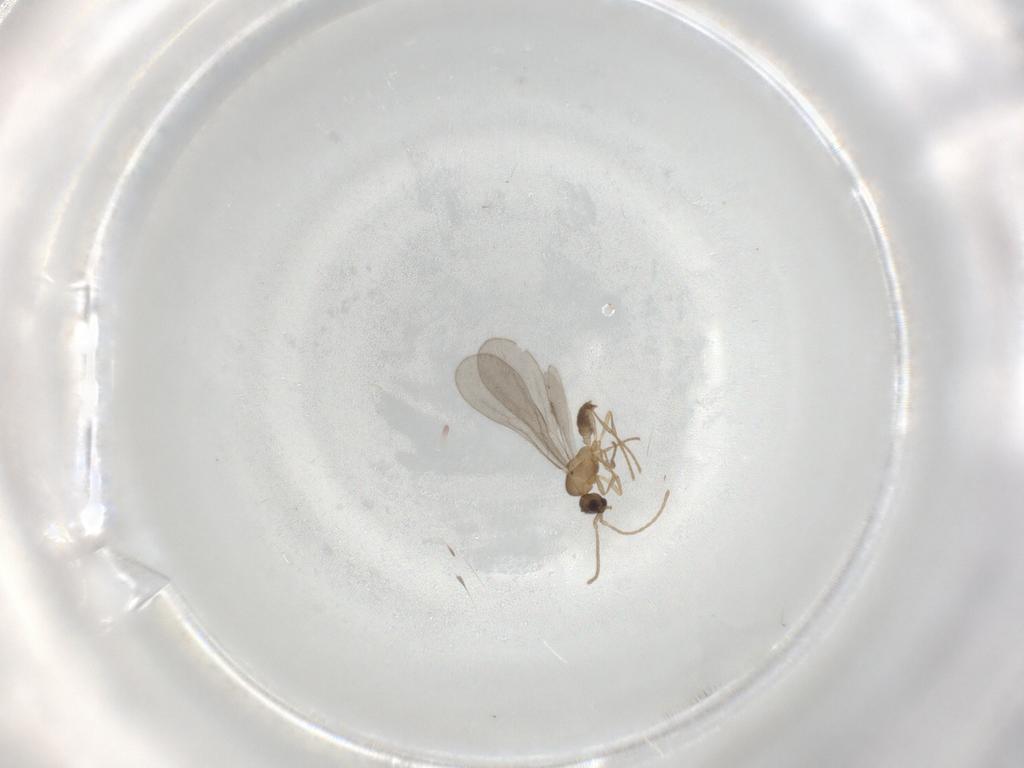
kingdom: Animalia
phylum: Arthropoda
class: Insecta
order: Hymenoptera
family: Formicidae
